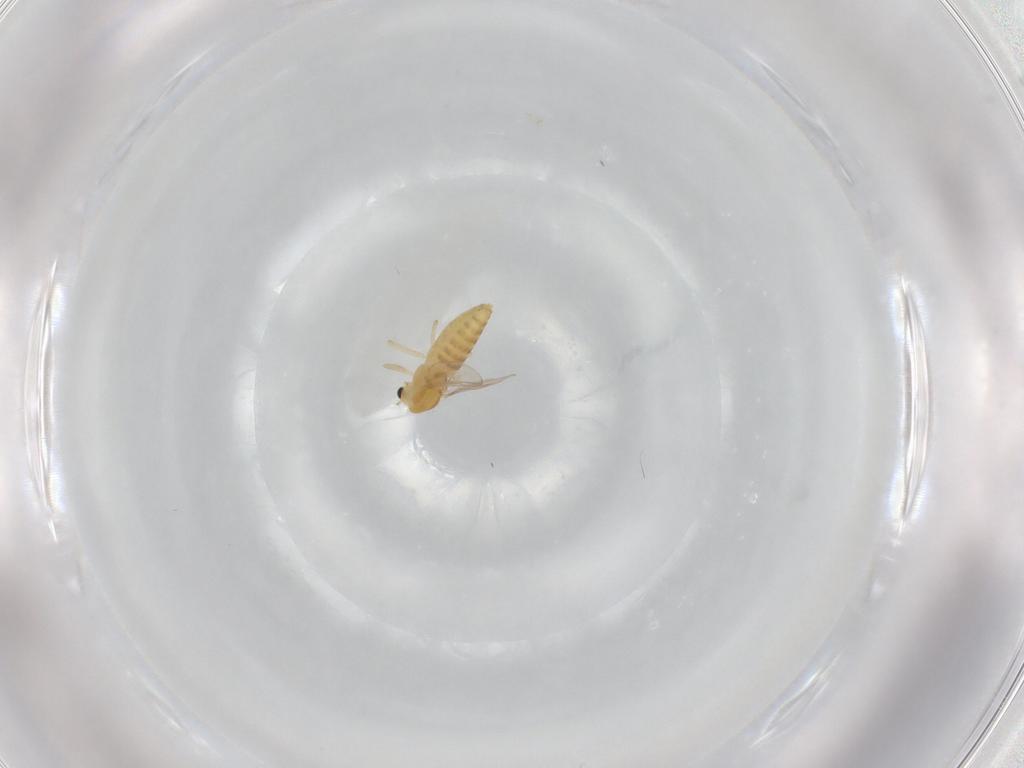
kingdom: Animalia
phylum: Arthropoda
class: Insecta
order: Diptera
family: Chironomidae
